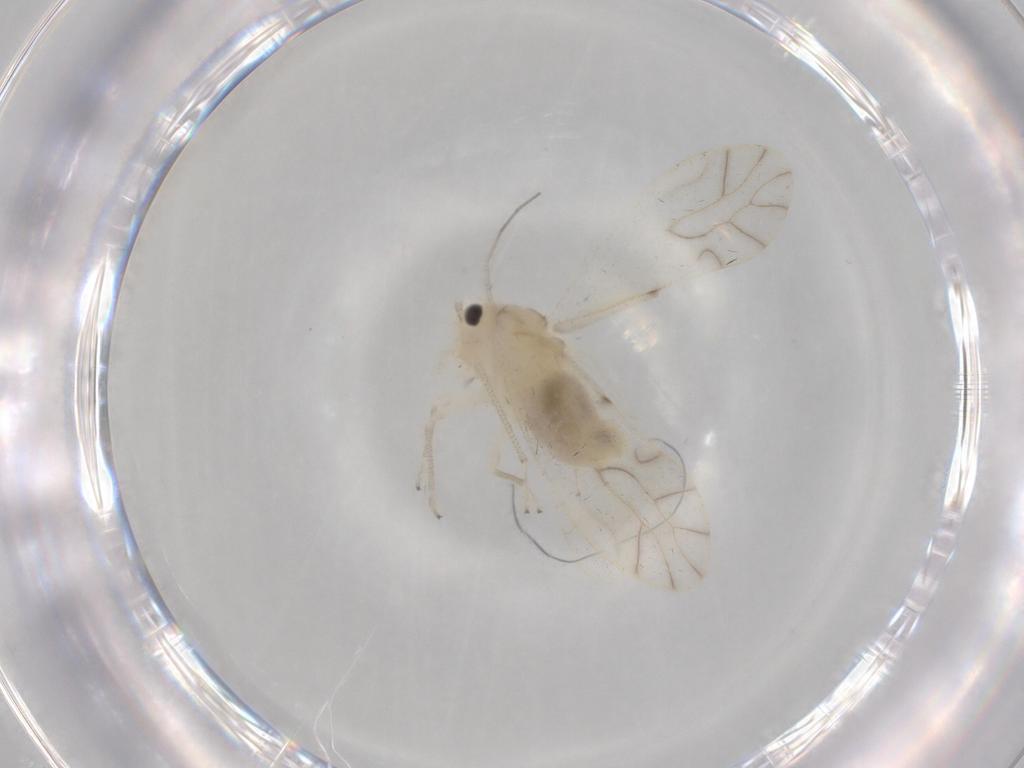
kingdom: Animalia
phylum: Arthropoda
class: Insecta
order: Psocodea
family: Caeciliusidae
